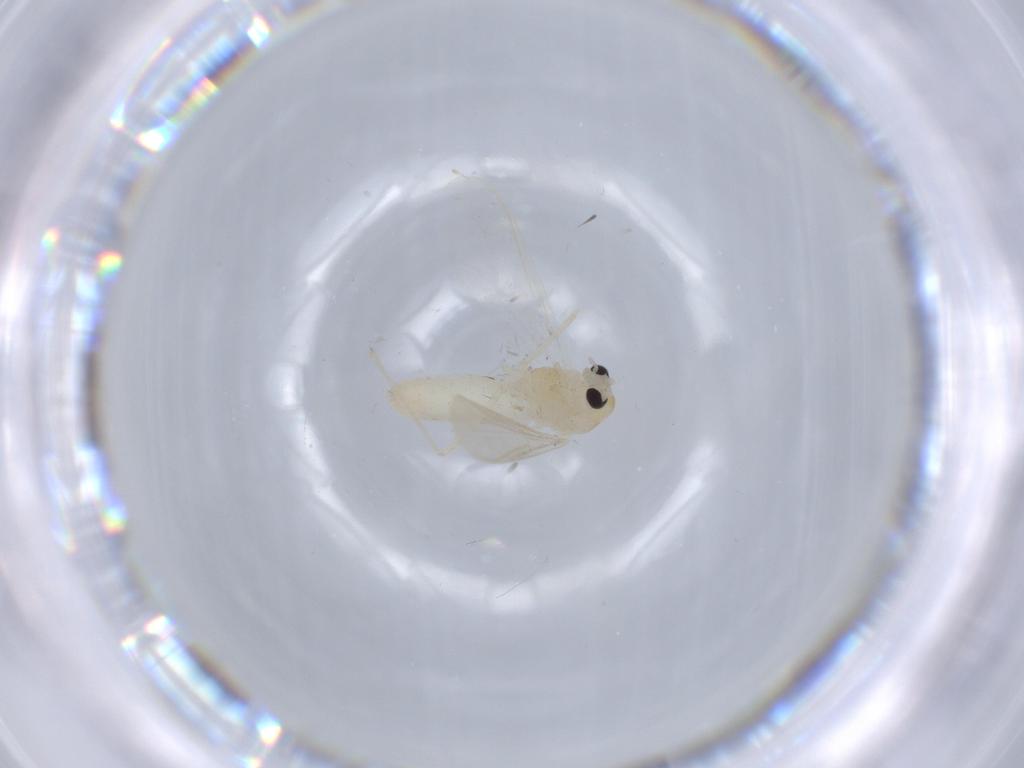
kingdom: Animalia
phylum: Arthropoda
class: Insecta
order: Diptera
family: Chironomidae
